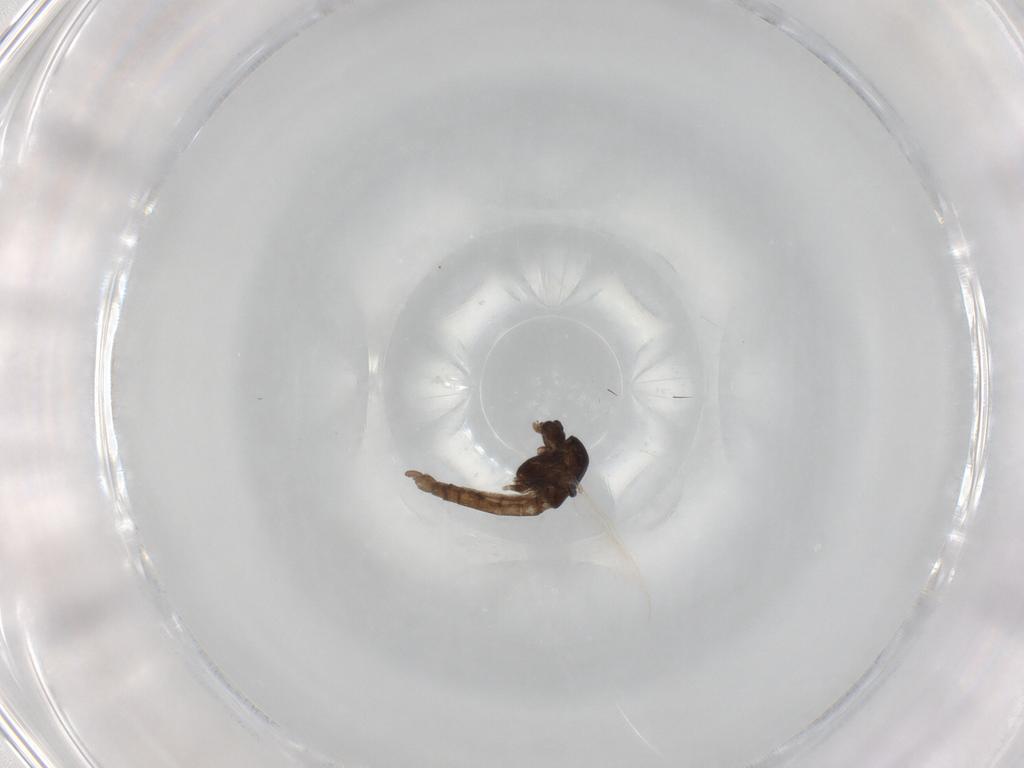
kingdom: Animalia
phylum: Arthropoda
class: Insecta
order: Diptera
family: Chironomidae
